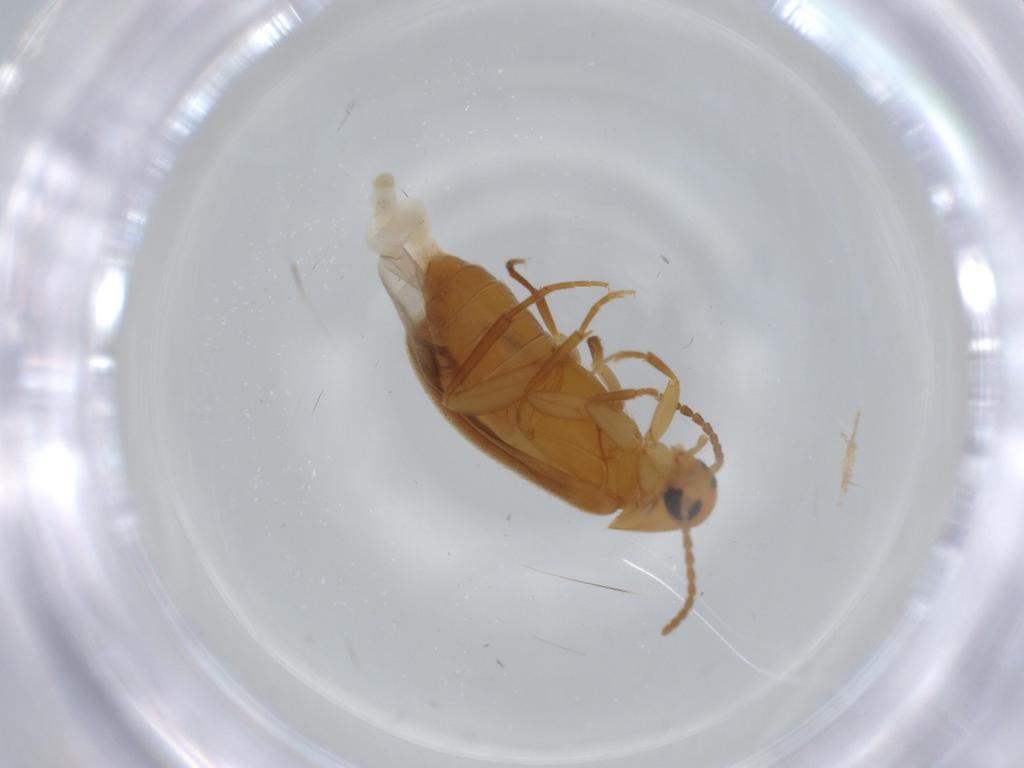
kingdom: Animalia
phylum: Arthropoda
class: Insecta
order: Coleoptera
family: Scraptiidae
